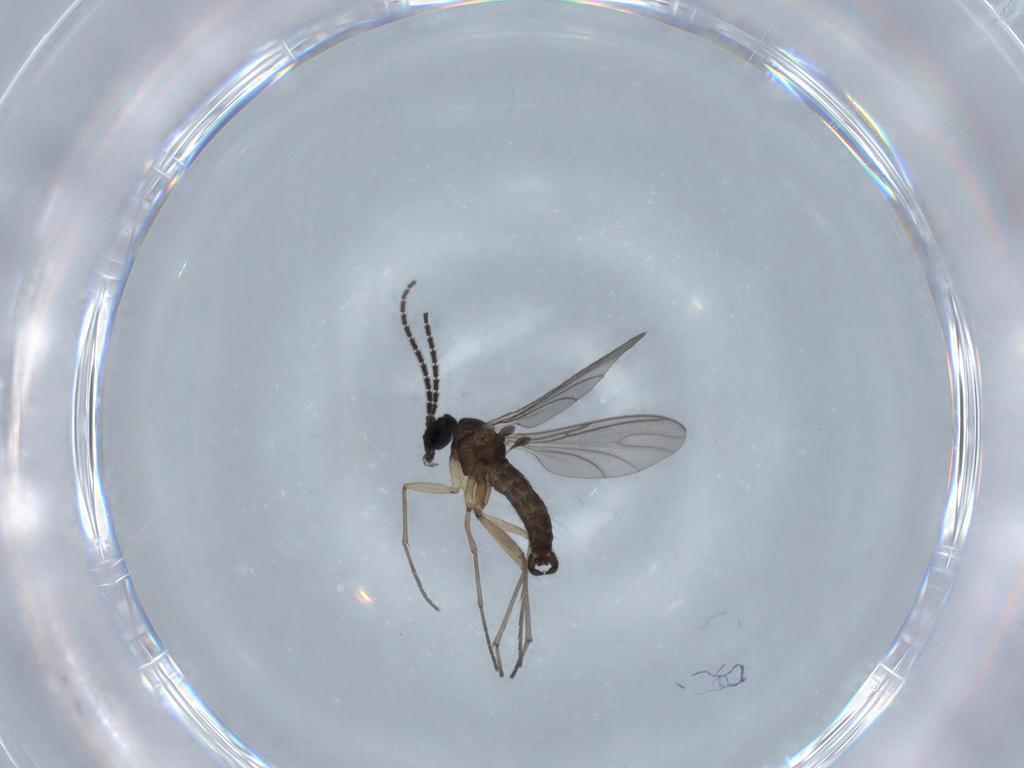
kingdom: Animalia
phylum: Arthropoda
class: Insecta
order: Diptera
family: Sciaridae
